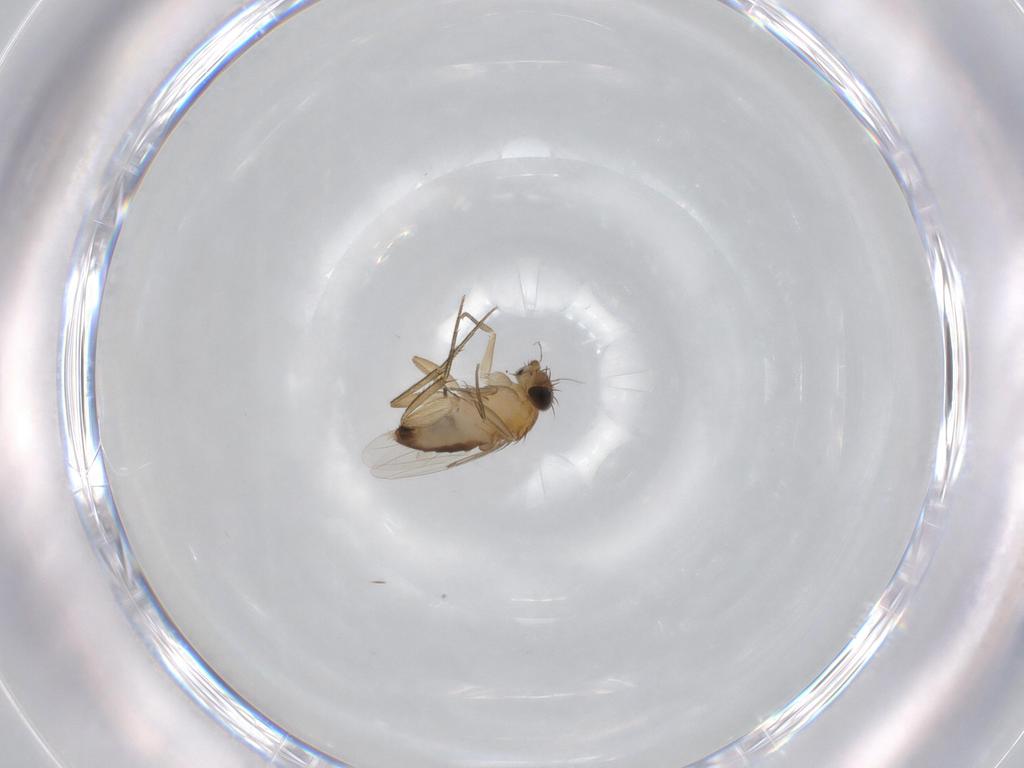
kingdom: Animalia
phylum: Arthropoda
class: Insecta
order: Diptera
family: Phoridae
